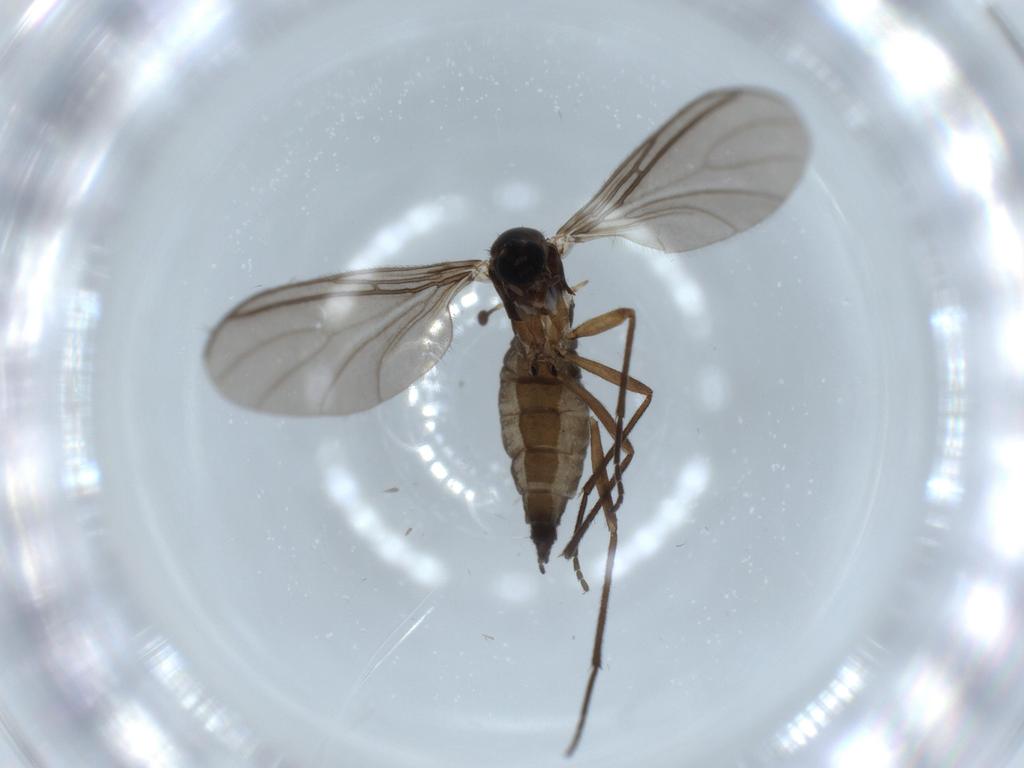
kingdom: Animalia
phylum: Arthropoda
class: Insecta
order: Diptera
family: Sciaridae
